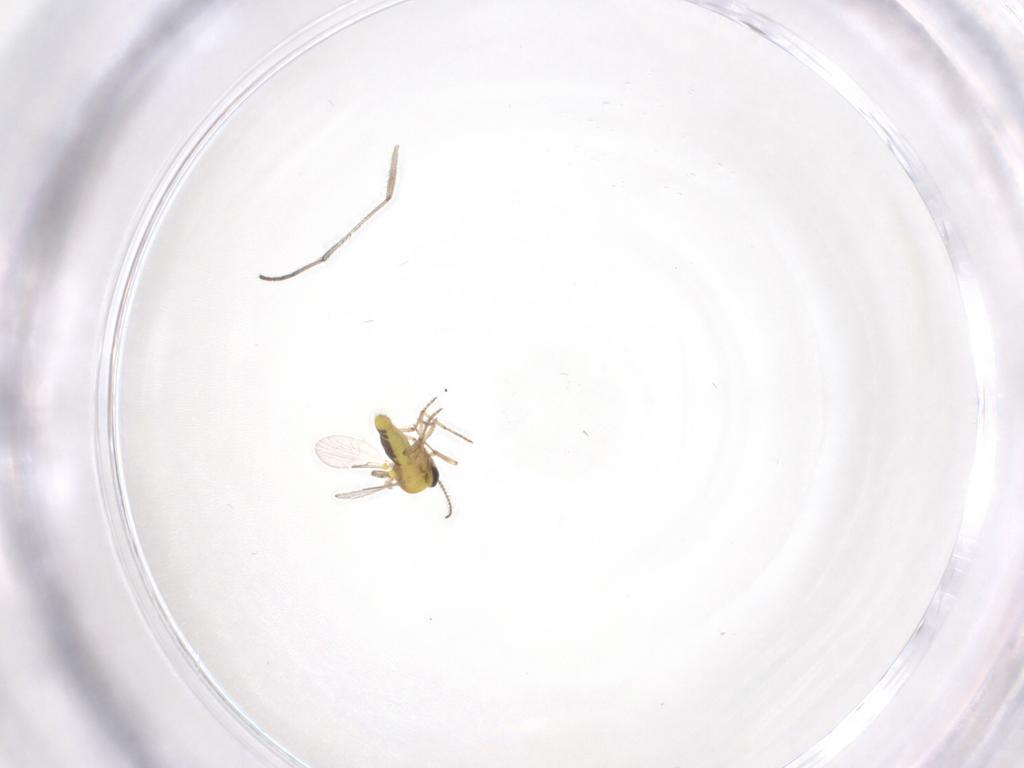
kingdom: Animalia
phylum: Arthropoda
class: Insecta
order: Diptera
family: Sciaridae
